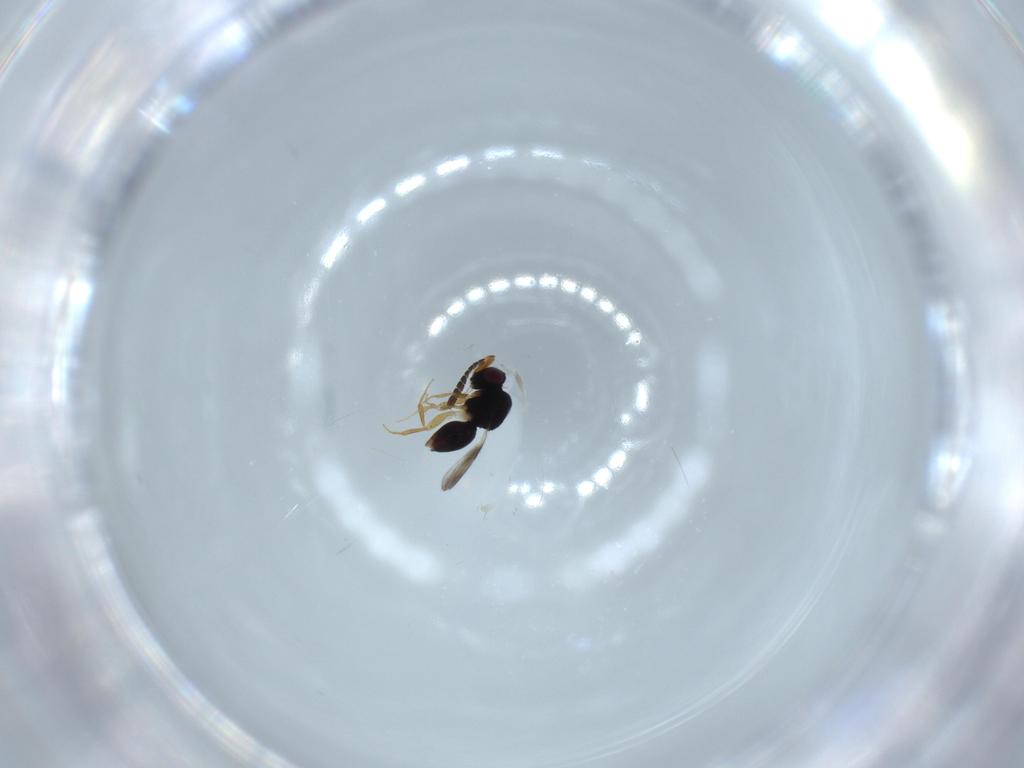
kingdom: Animalia
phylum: Arthropoda
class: Insecta
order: Hymenoptera
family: Ceraphronidae
